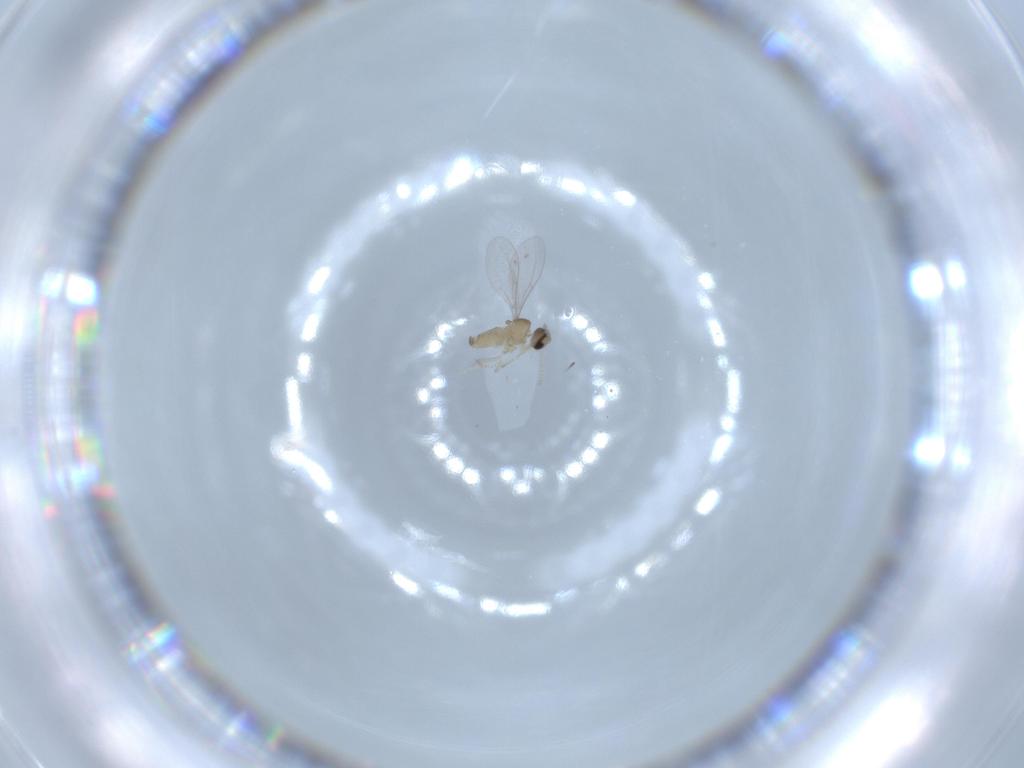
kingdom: Animalia
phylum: Arthropoda
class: Insecta
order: Diptera
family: Cecidomyiidae
